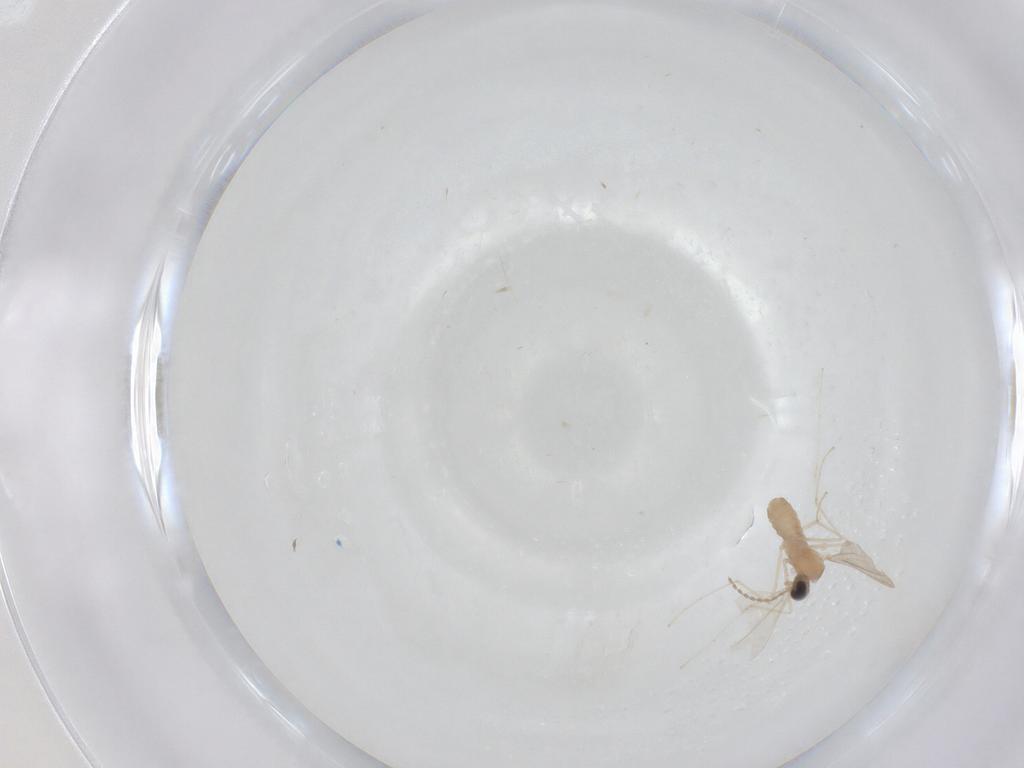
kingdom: Animalia
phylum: Arthropoda
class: Insecta
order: Diptera
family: Cecidomyiidae
